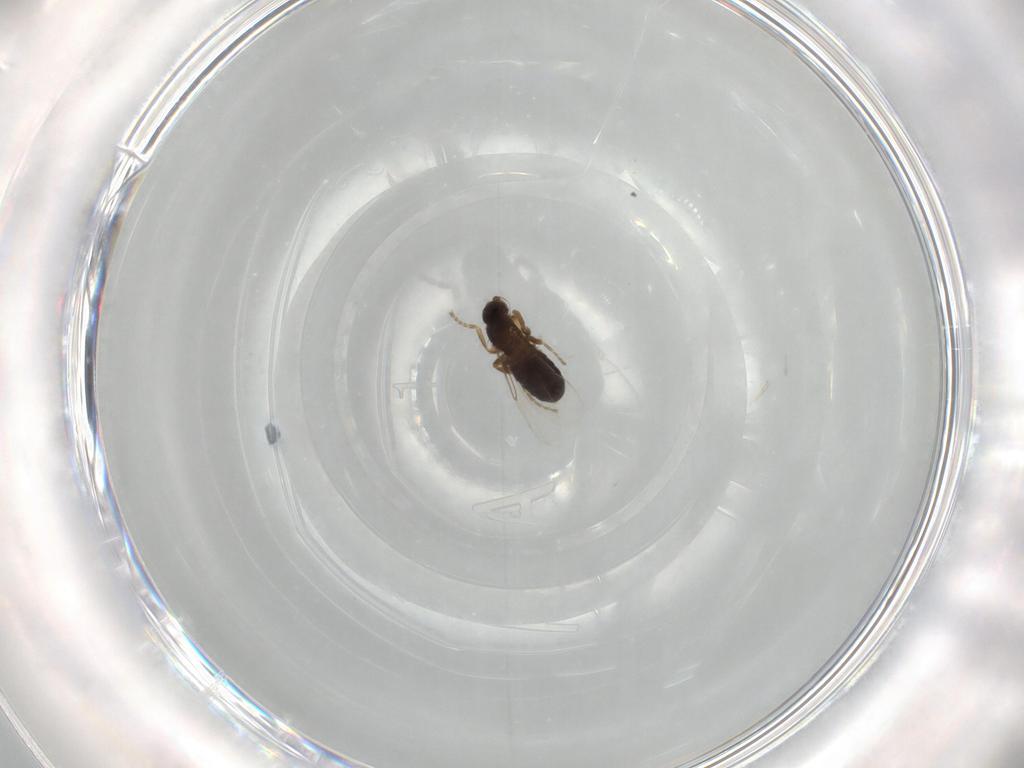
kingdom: Animalia
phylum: Arthropoda
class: Insecta
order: Diptera
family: Phoridae
